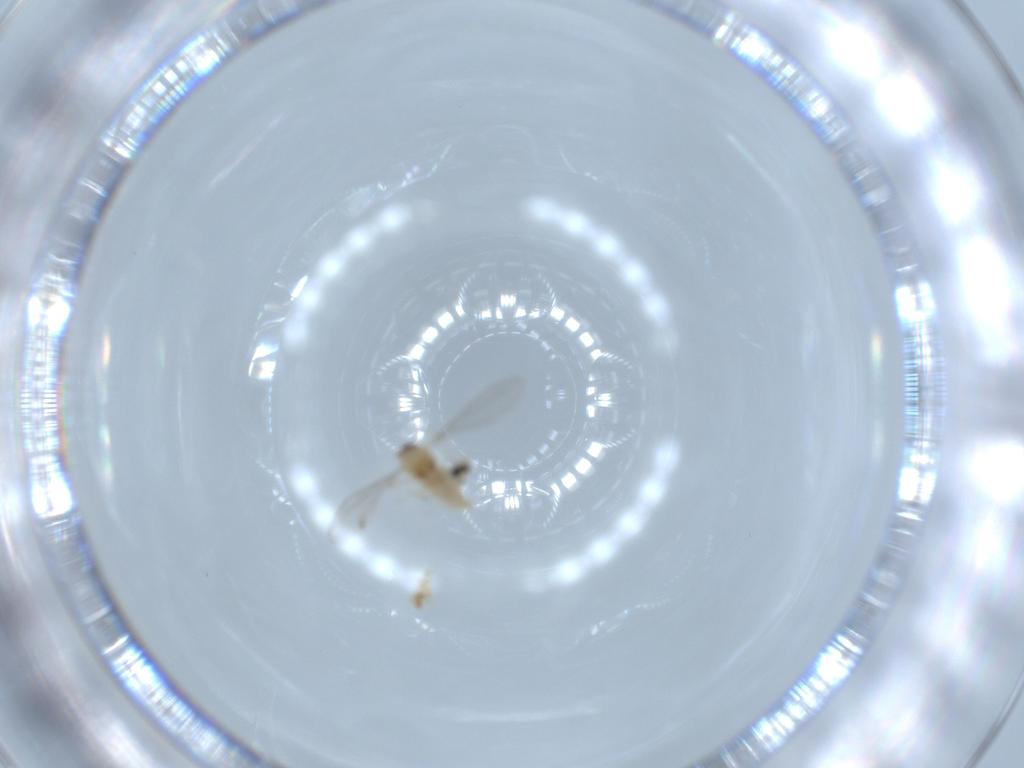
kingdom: Animalia
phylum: Arthropoda
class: Insecta
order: Diptera
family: Cecidomyiidae
